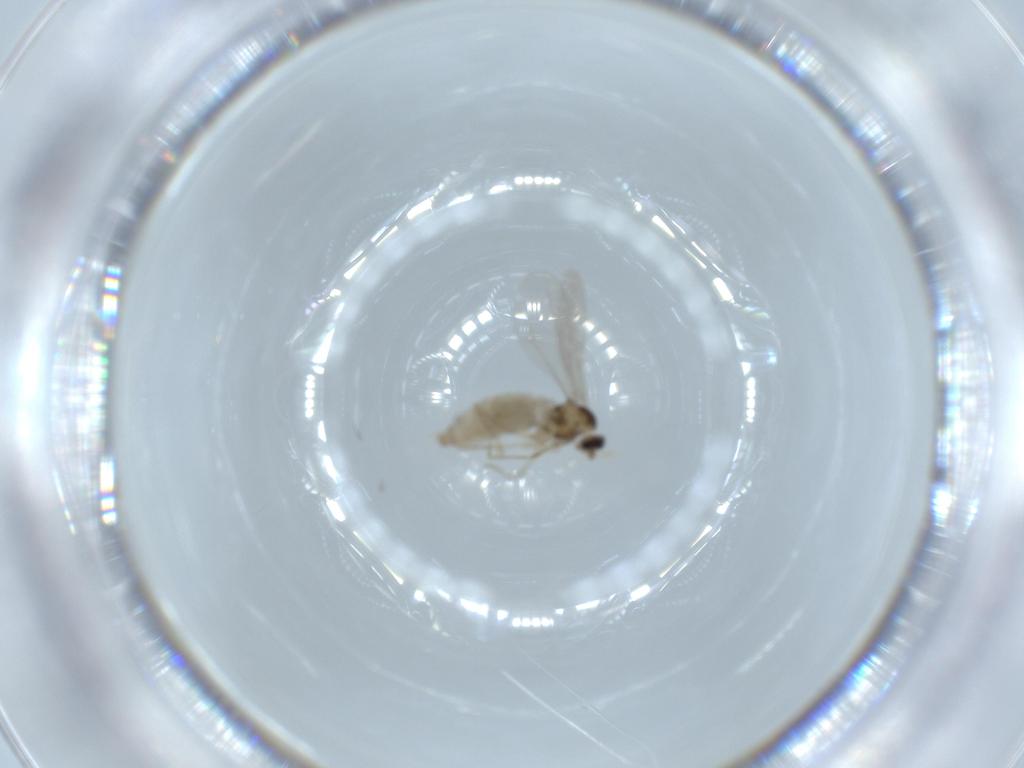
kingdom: Animalia
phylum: Arthropoda
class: Insecta
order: Diptera
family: Cecidomyiidae
